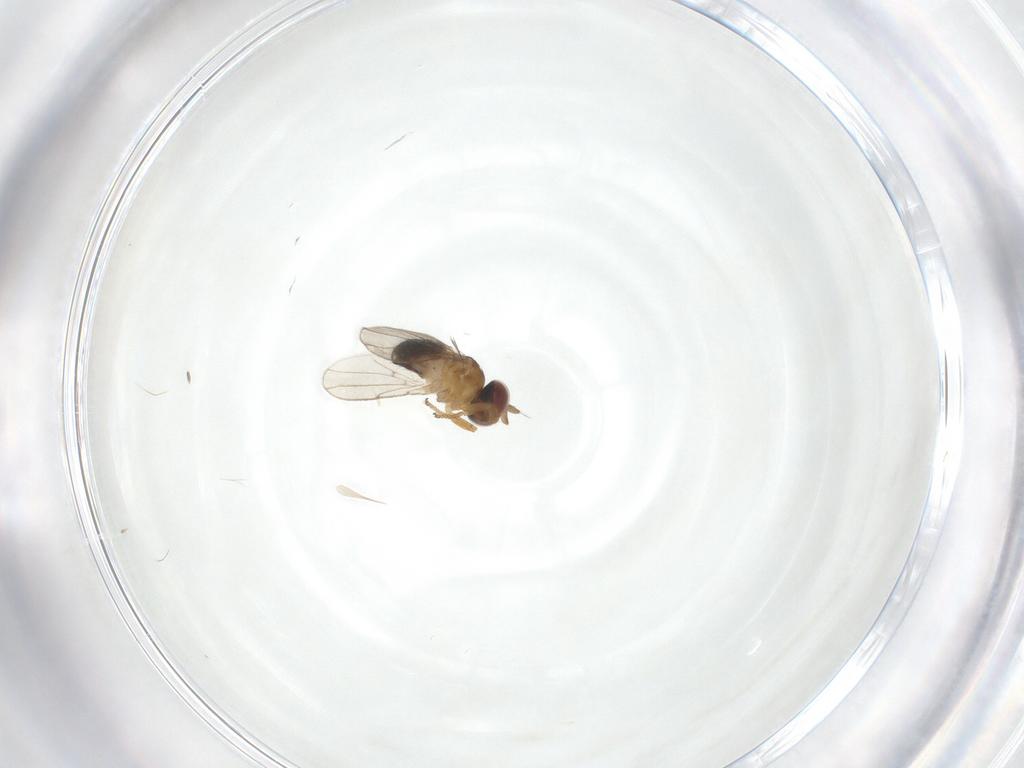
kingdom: Animalia
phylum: Arthropoda
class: Insecta
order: Diptera
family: Ephydridae
